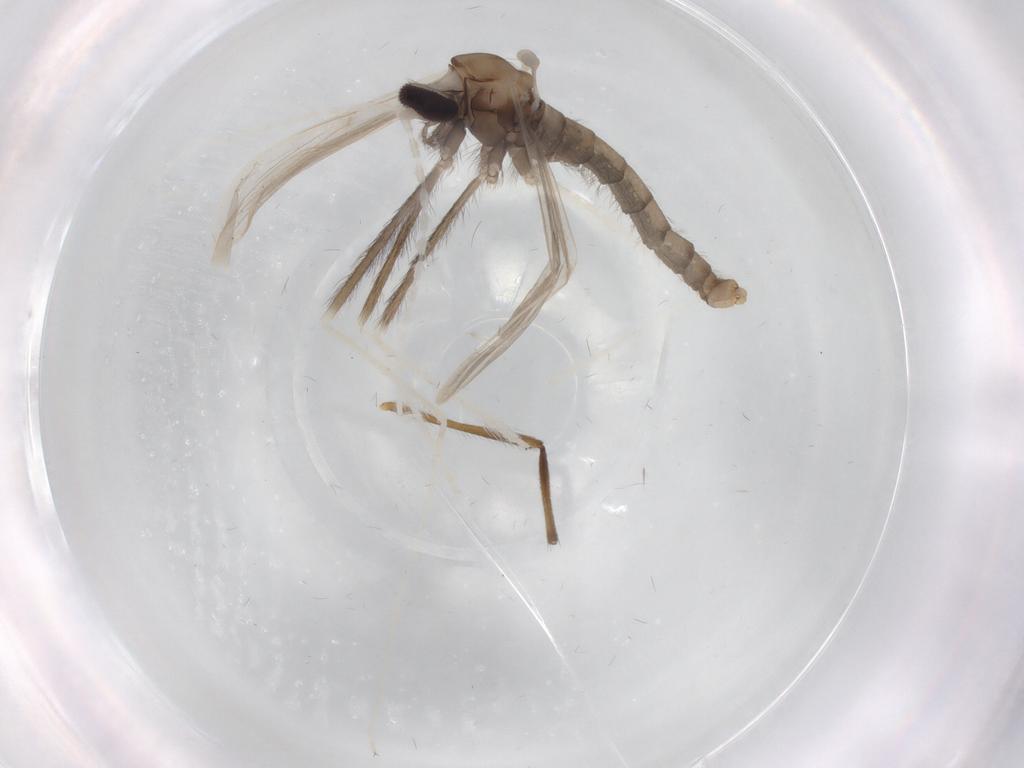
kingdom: Animalia
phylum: Arthropoda
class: Insecta
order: Diptera
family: Cecidomyiidae
